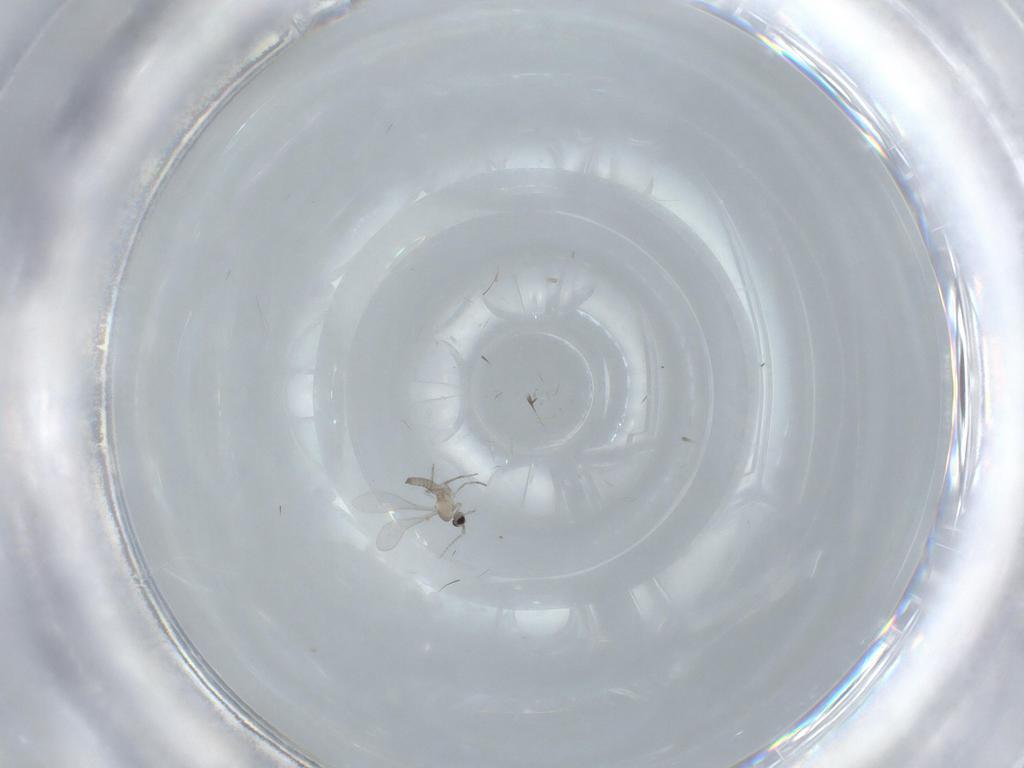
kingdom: Animalia
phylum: Arthropoda
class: Insecta
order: Diptera
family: Cecidomyiidae
